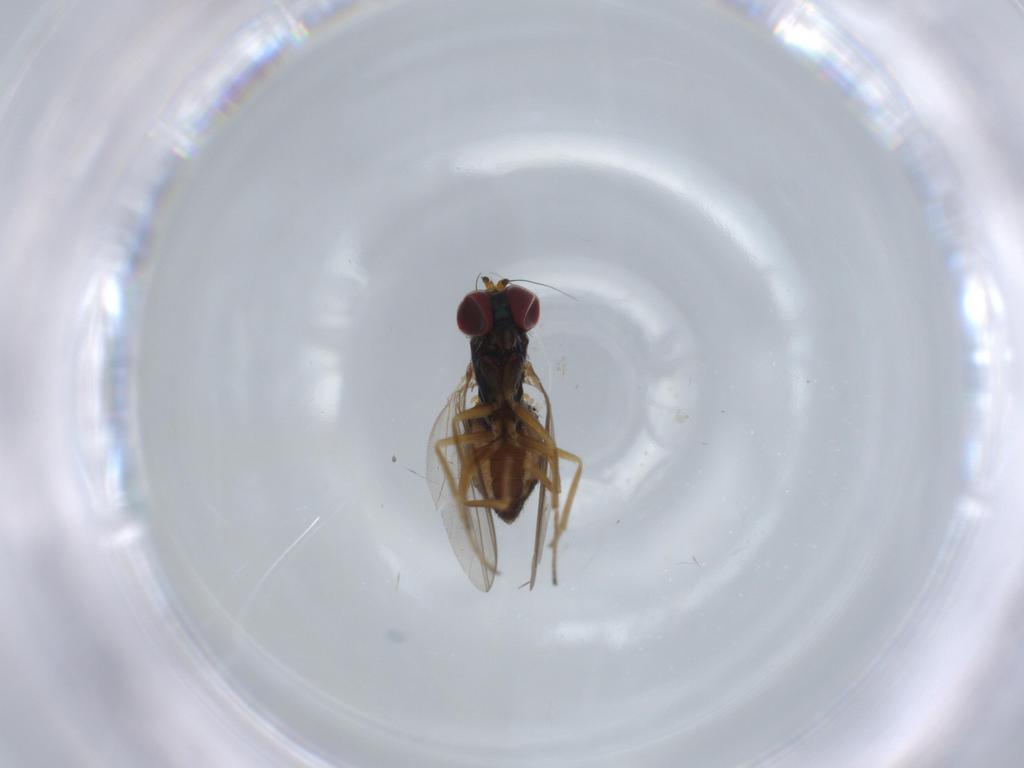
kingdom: Animalia
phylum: Arthropoda
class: Insecta
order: Diptera
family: Dolichopodidae
